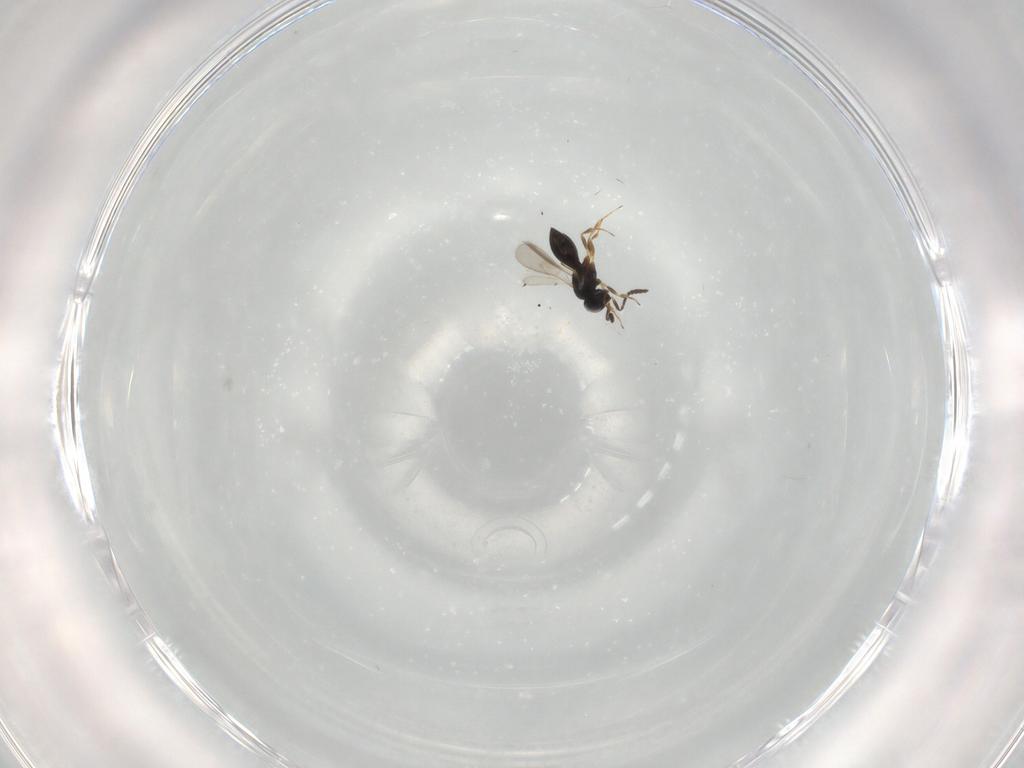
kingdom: Animalia
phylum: Arthropoda
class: Insecta
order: Hymenoptera
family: Scelionidae
